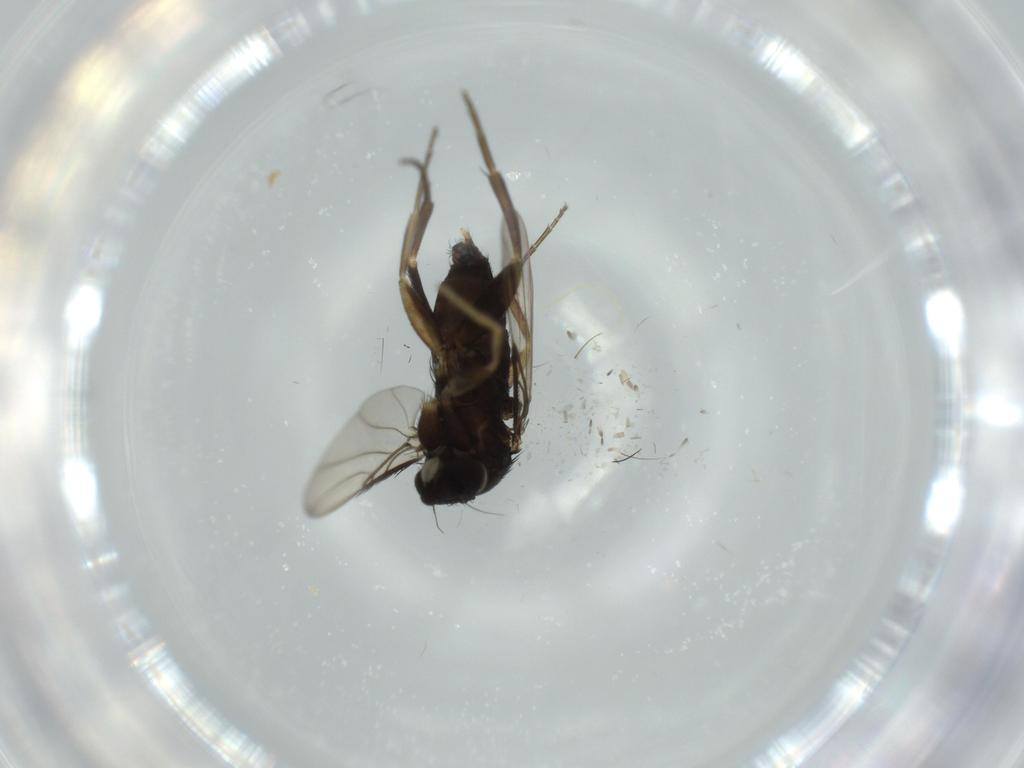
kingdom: Animalia
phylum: Arthropoda
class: Insecta
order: Diptera
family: Phoridae
